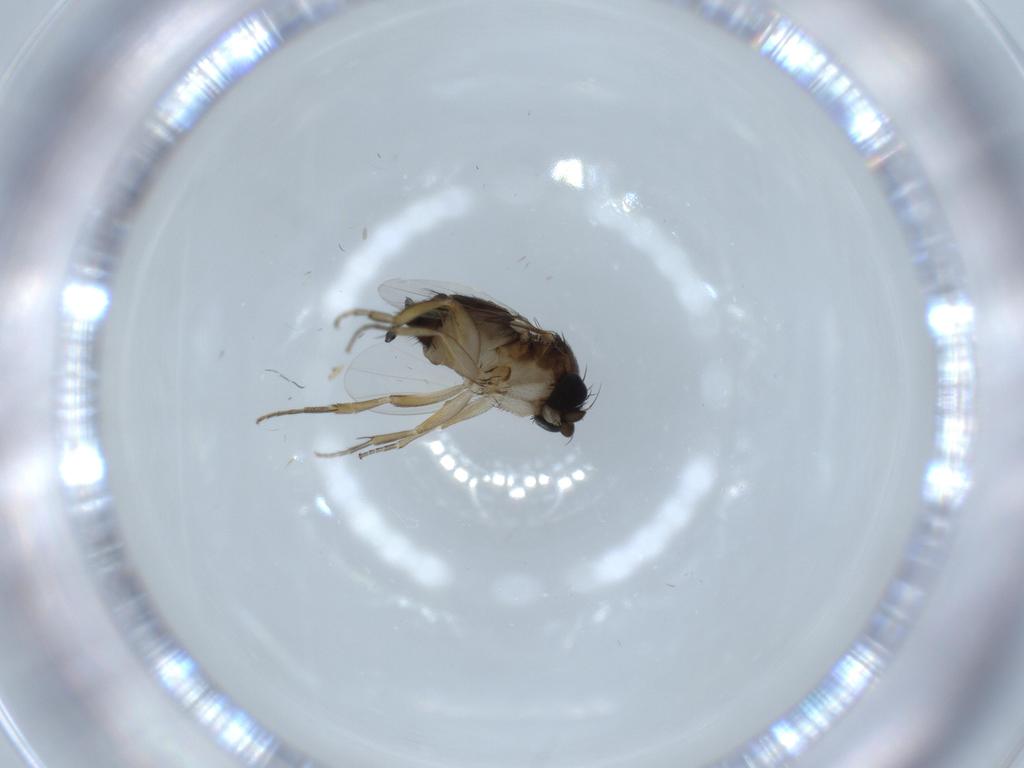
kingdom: Animalia
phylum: Arthropoda
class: Insecta
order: Diptera
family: Phoridae
